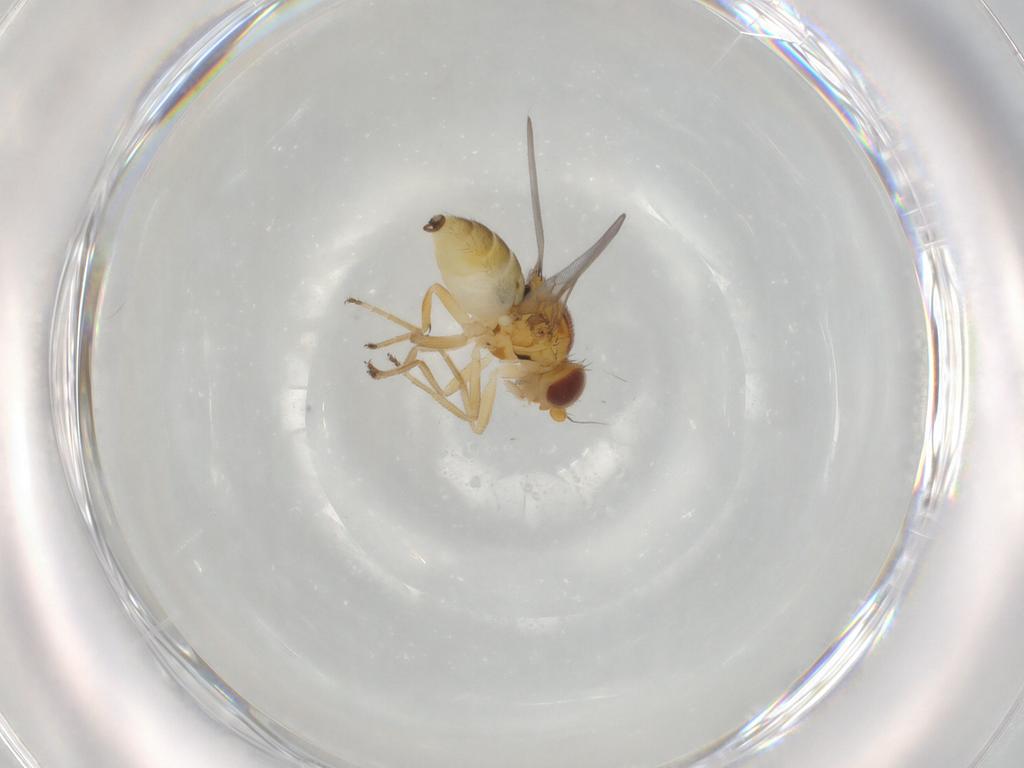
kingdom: Animalia
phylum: Arthropoda
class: Insecta
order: Diptera
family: Chloropidae
